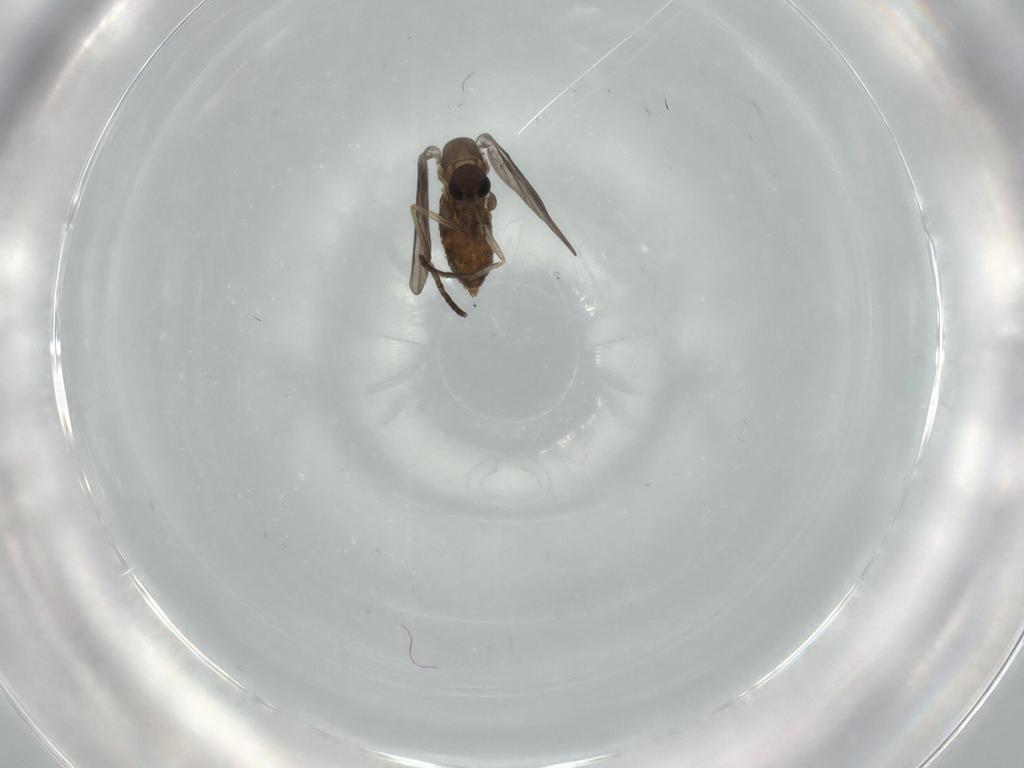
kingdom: Animalia
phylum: Arthropoda
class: Insecta
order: Diptera
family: Psychodidae
